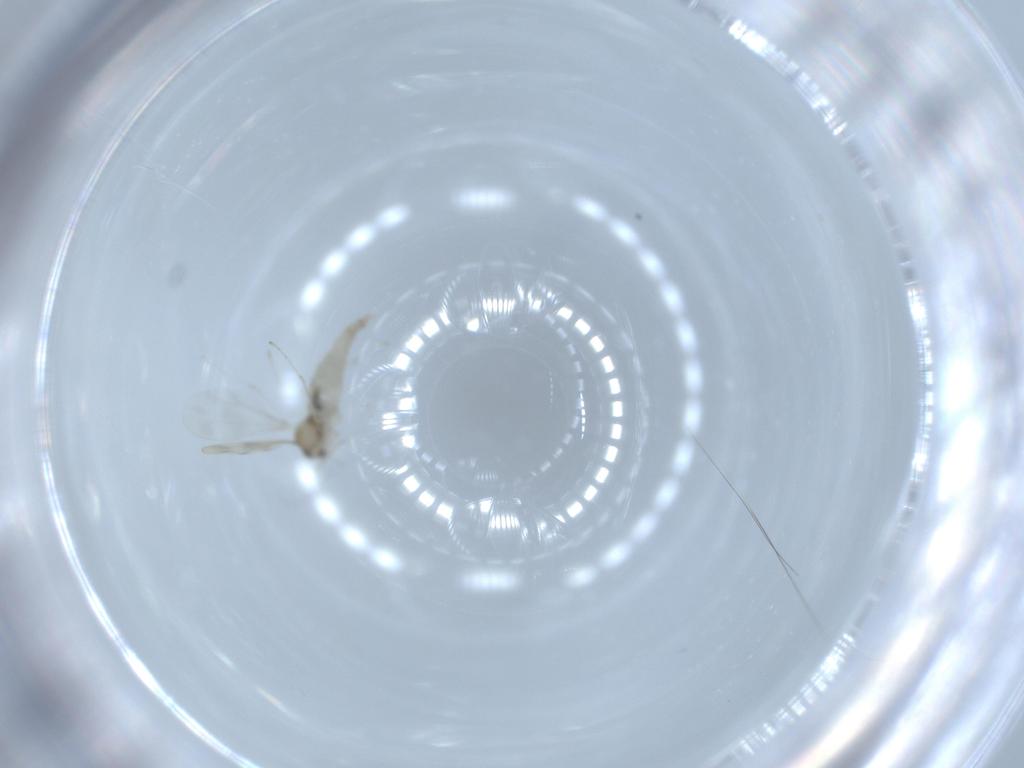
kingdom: Animalia
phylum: Arthropoda
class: Insecta
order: Diptera
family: Cecidomyiidae
